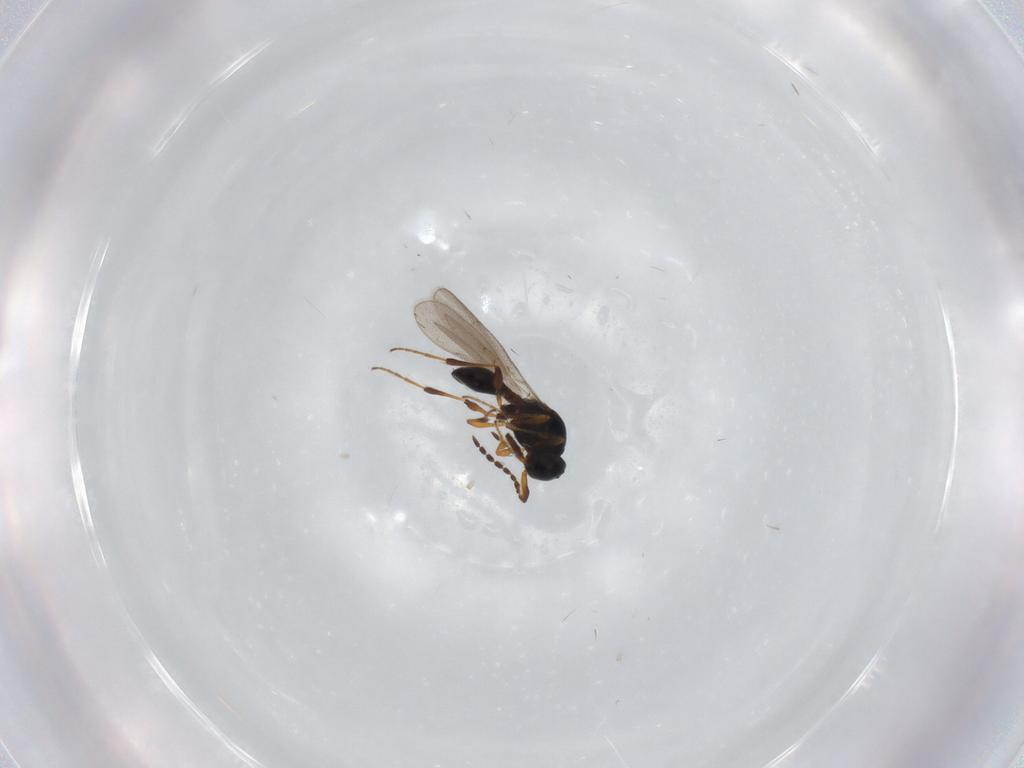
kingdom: Animalia
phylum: Arthropoda
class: Insecta
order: Hymenoptera
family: Platygastridae
